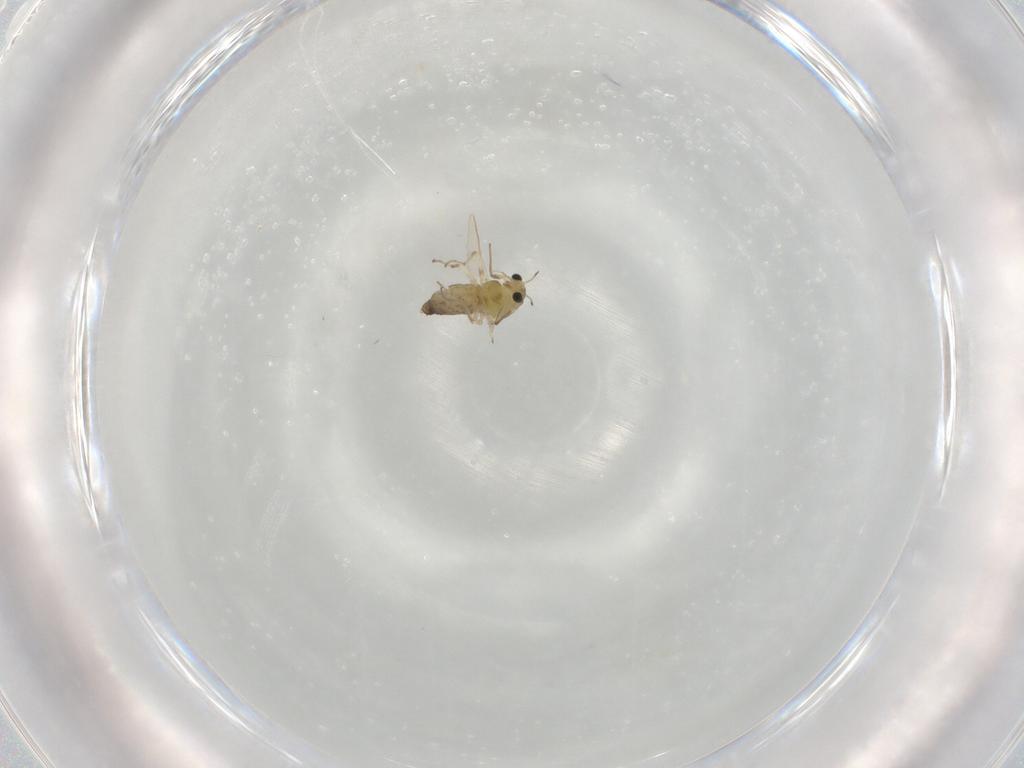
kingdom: Animalia
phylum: Arthropoda
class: Insecta
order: Diptera
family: Chironomidae
